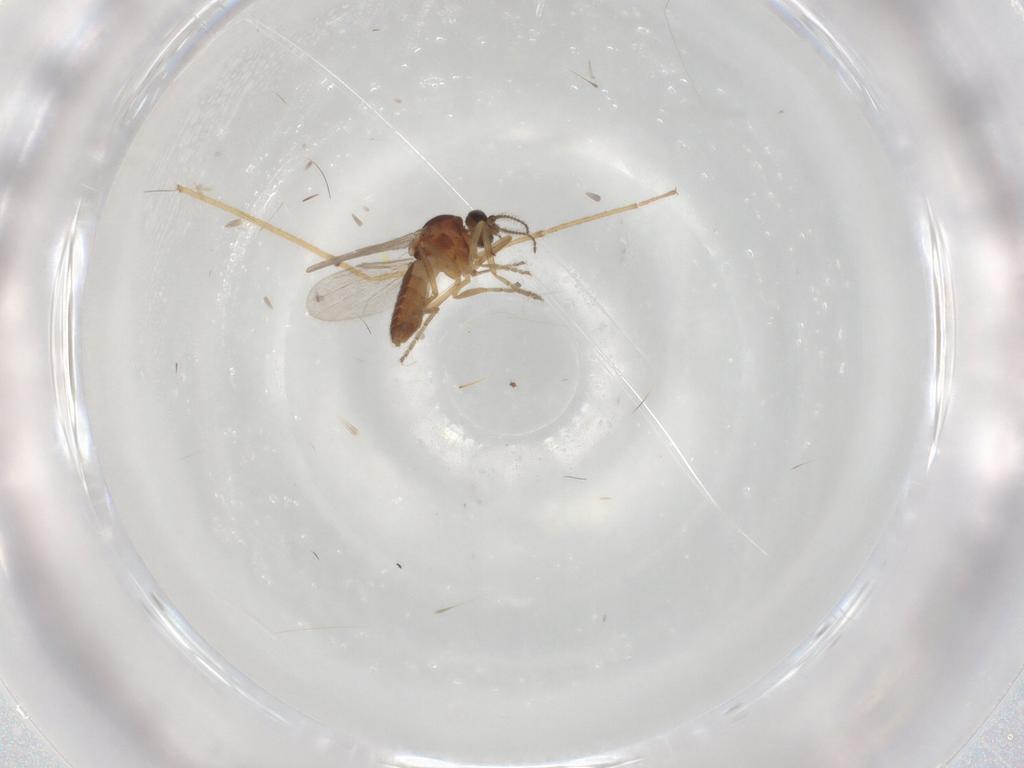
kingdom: Animalia
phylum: Arthropoda
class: Insecta
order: Diptera
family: Ceratopogonidae
